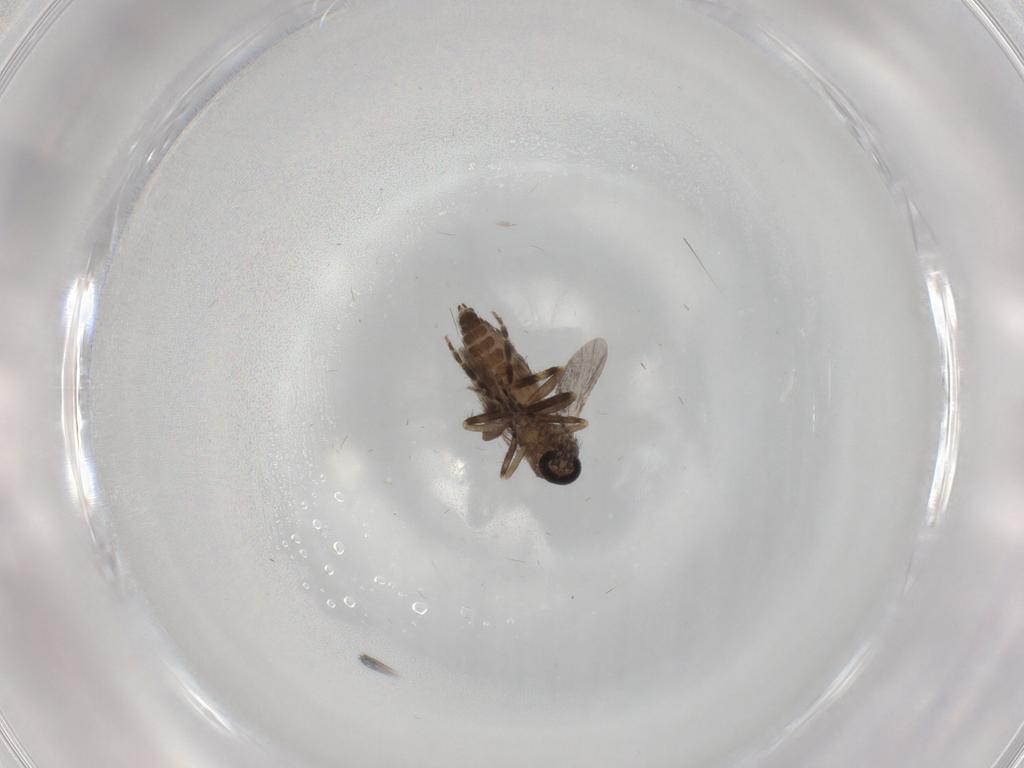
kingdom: Animalia
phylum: Arthropoda
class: Insecta
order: Diptera
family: Ceratopogonidae
